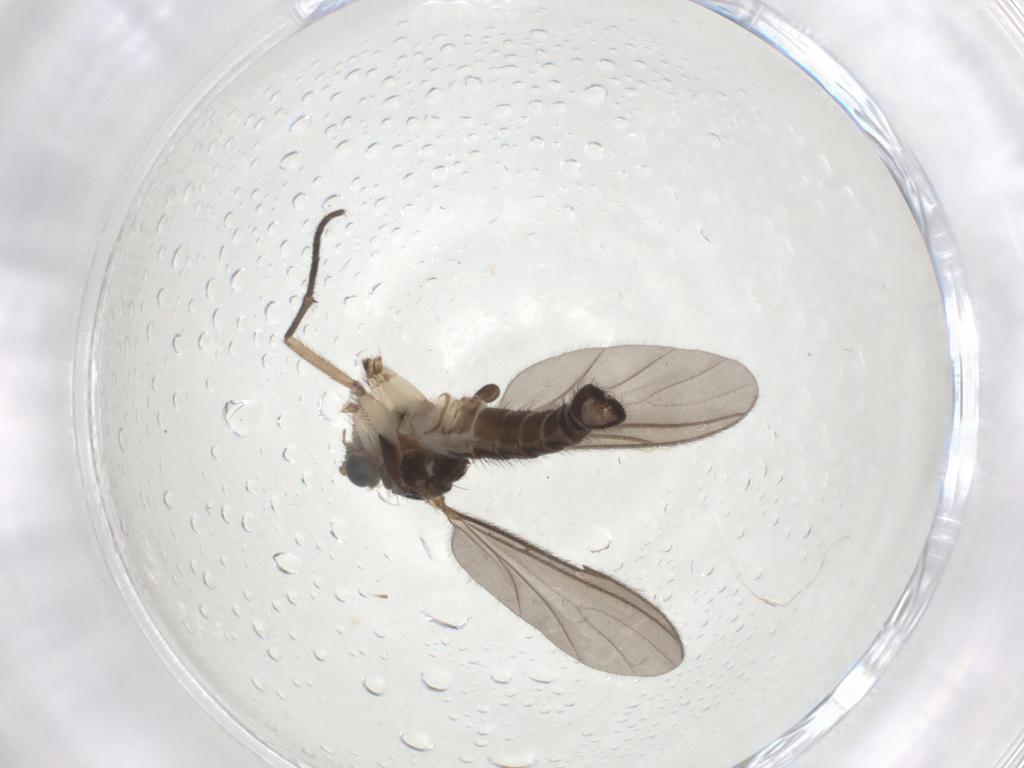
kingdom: Animalia
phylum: Arthropoda
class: Insecta
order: Diptera
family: Sciaridae
